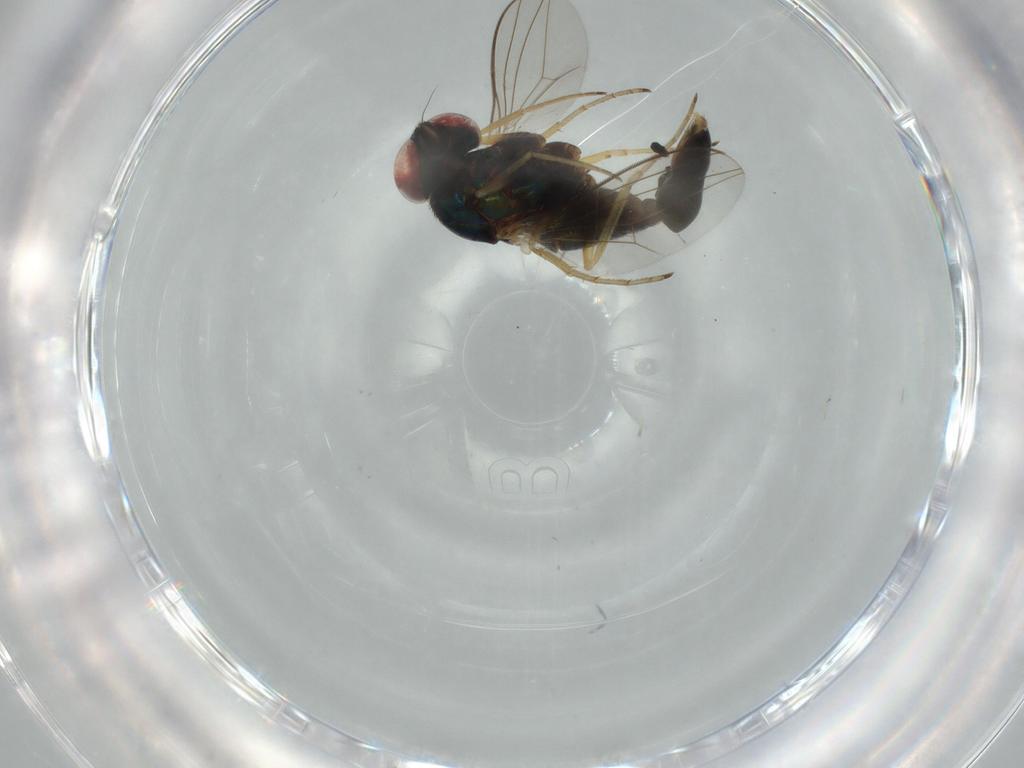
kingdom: Animalia
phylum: Arthropoda
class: Insecta
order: Diptera
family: Dolichopodidae
